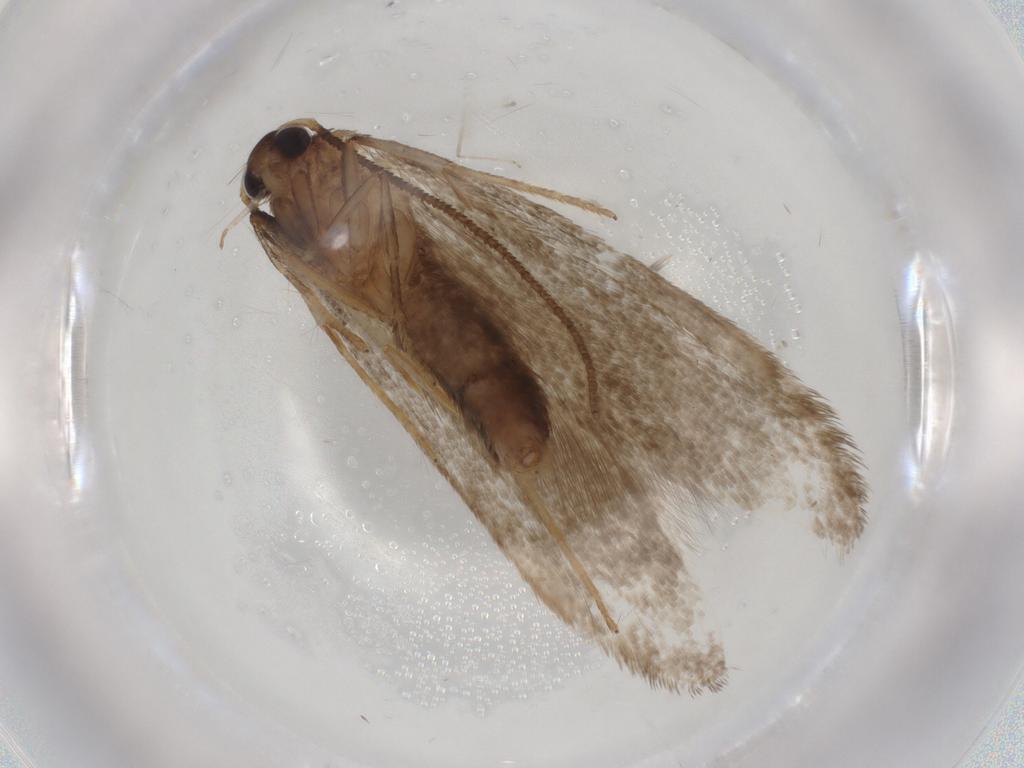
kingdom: Animalia
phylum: Arthropoda
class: Insecta
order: Lepidoptera
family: Blastobasidae
